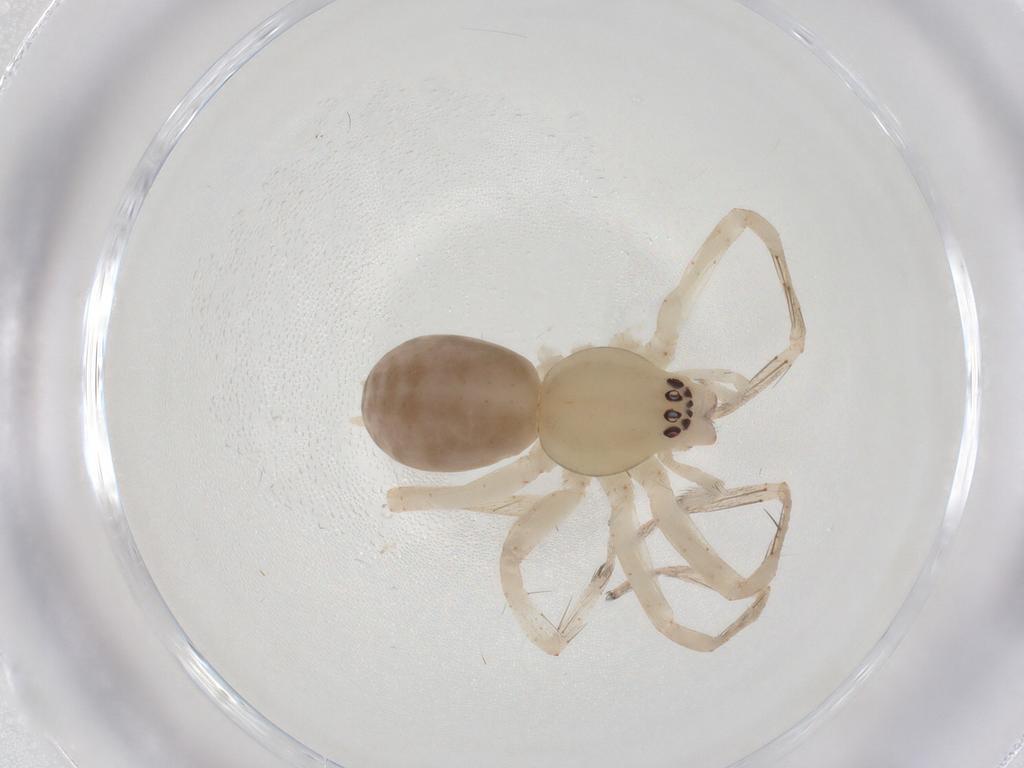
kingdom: Animalia
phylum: Arthropoda
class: Arachnida
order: Araneae
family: Anyphaenidae
